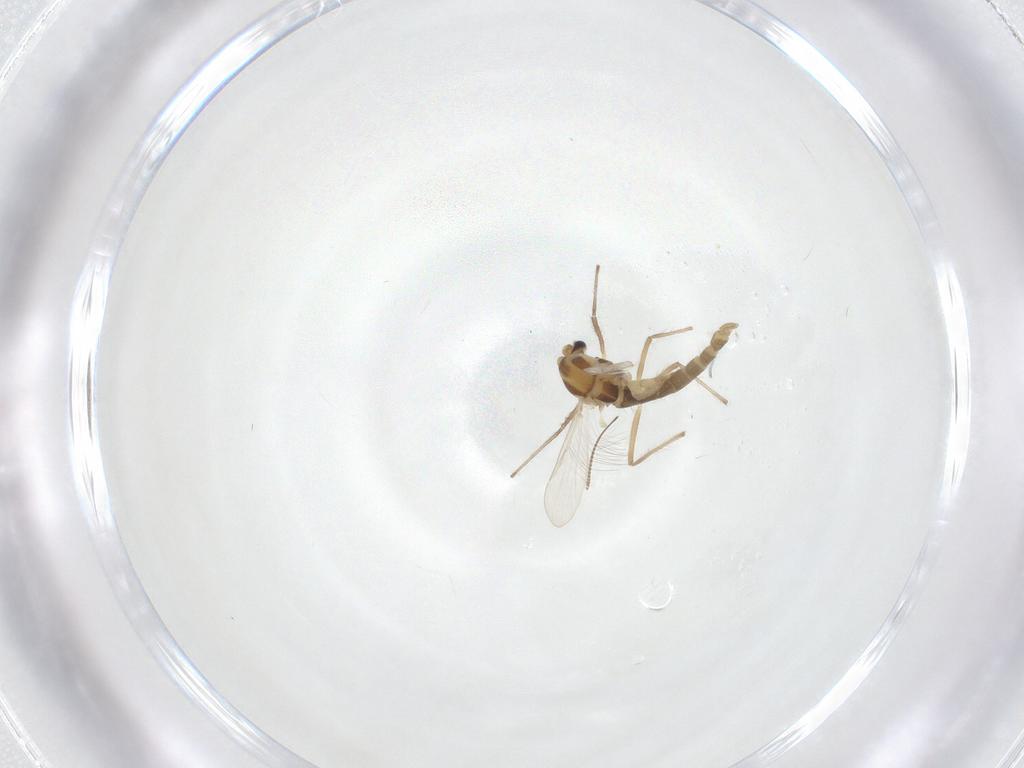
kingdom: Animalia
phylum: Arthropoda
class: Insecta
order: Diptera
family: Chironomidae
